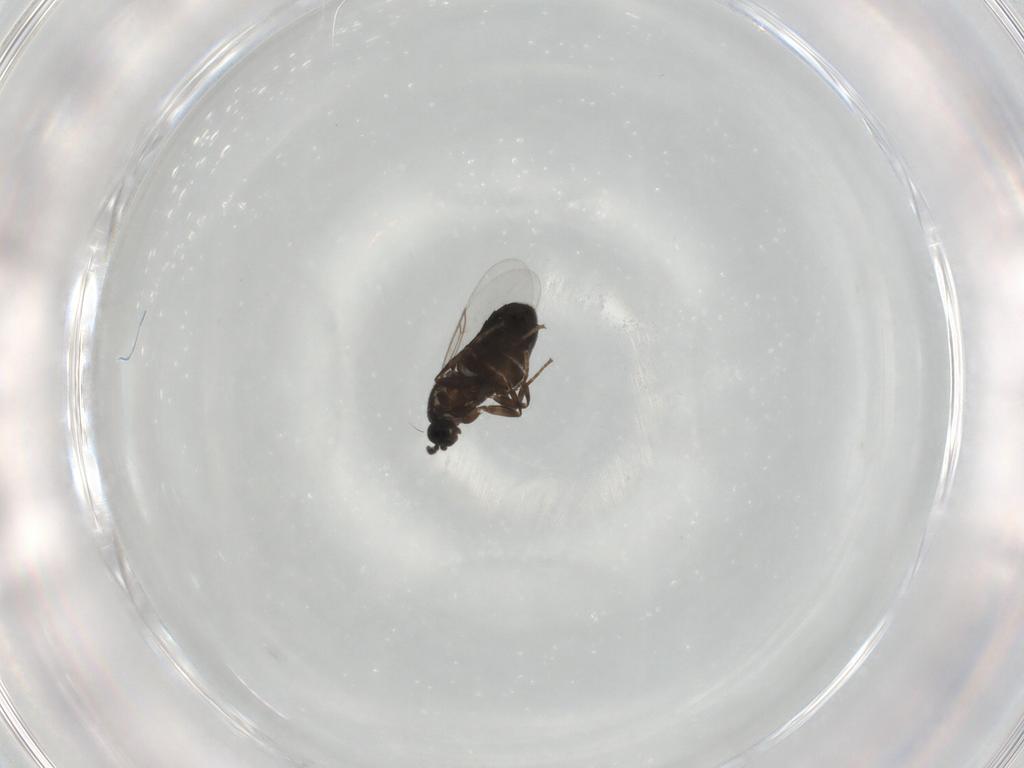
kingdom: Animalia
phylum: Arthropoda
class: Insecta
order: Diptera
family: Calliphoridae
